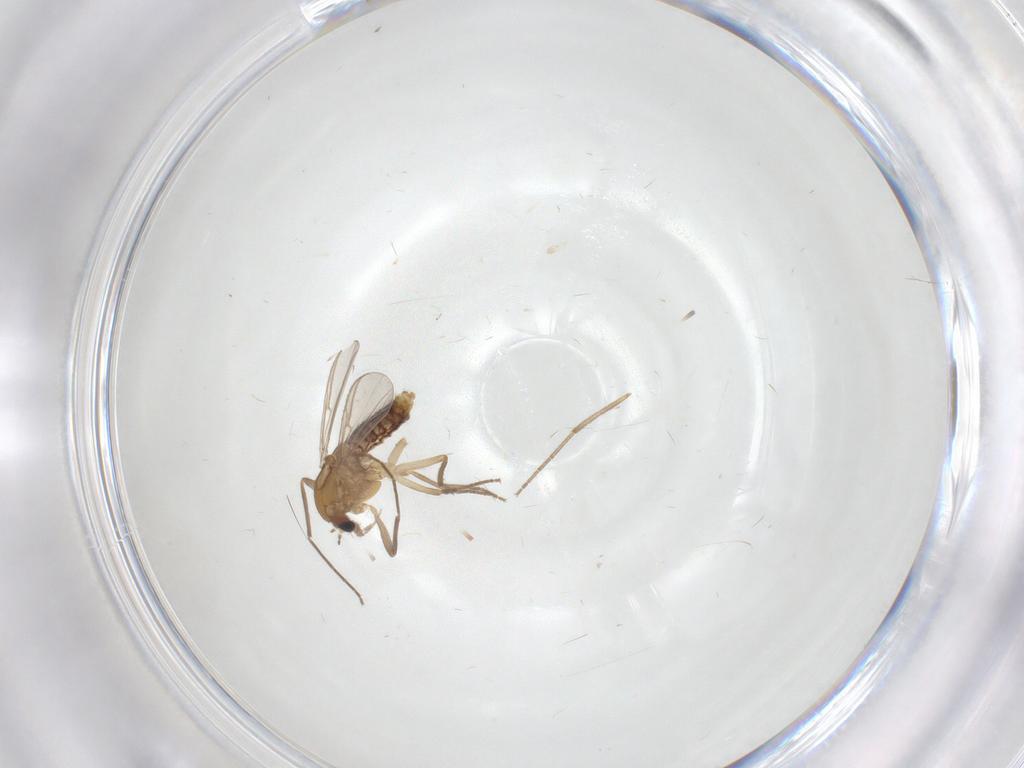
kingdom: Animalia
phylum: Arthropoda
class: Insecta
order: Diptera
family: Chironomidae
